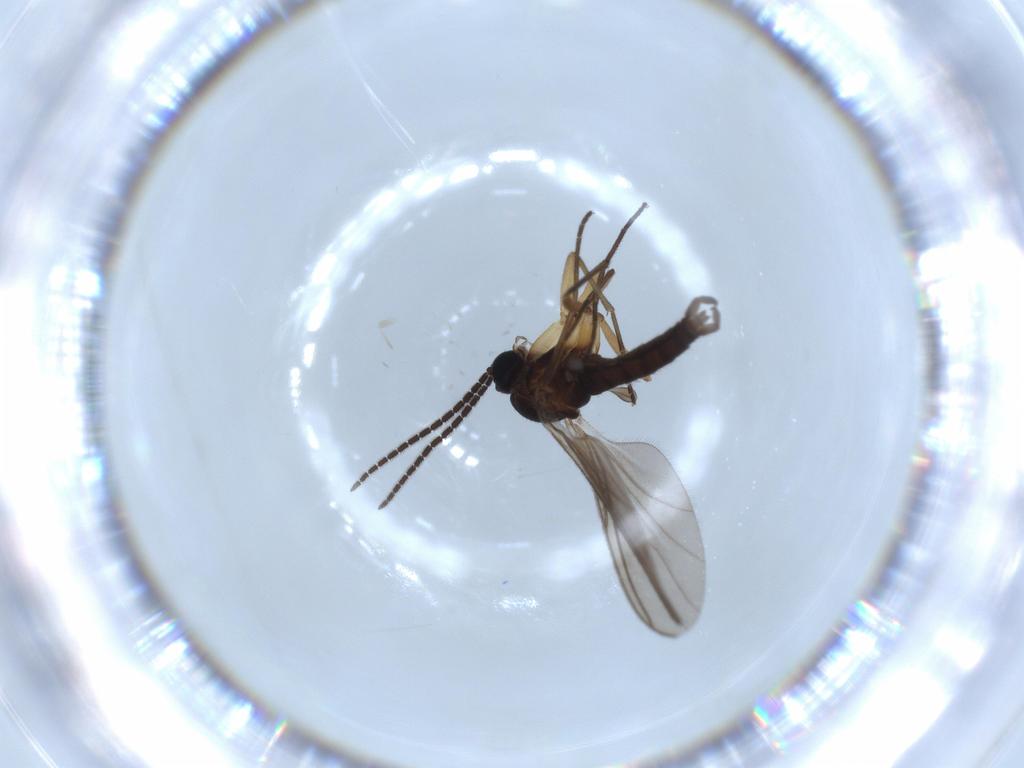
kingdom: Animalia
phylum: Arthropoda
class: Insecta
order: Diptera
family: Sciaridae
